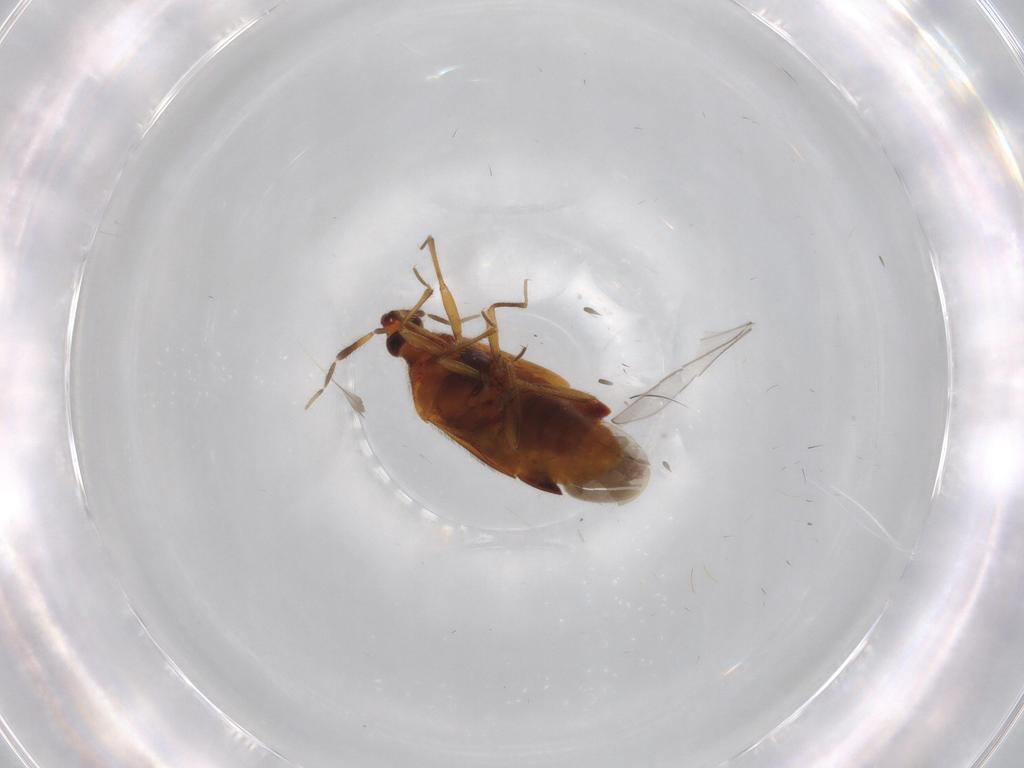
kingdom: Animalia
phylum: Arthropoda
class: Insecta
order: Hemiptera
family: Anthocoridae
